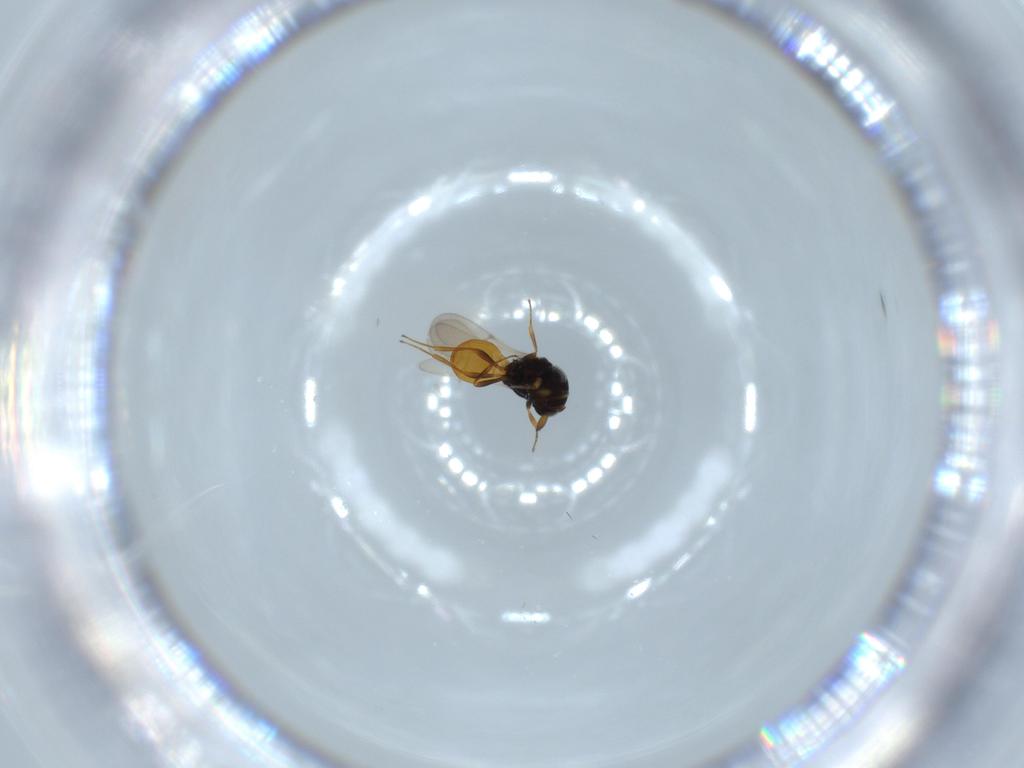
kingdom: Animalia
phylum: Arthropoda
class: Insecta
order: Hymenoptera
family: Scelionidae
